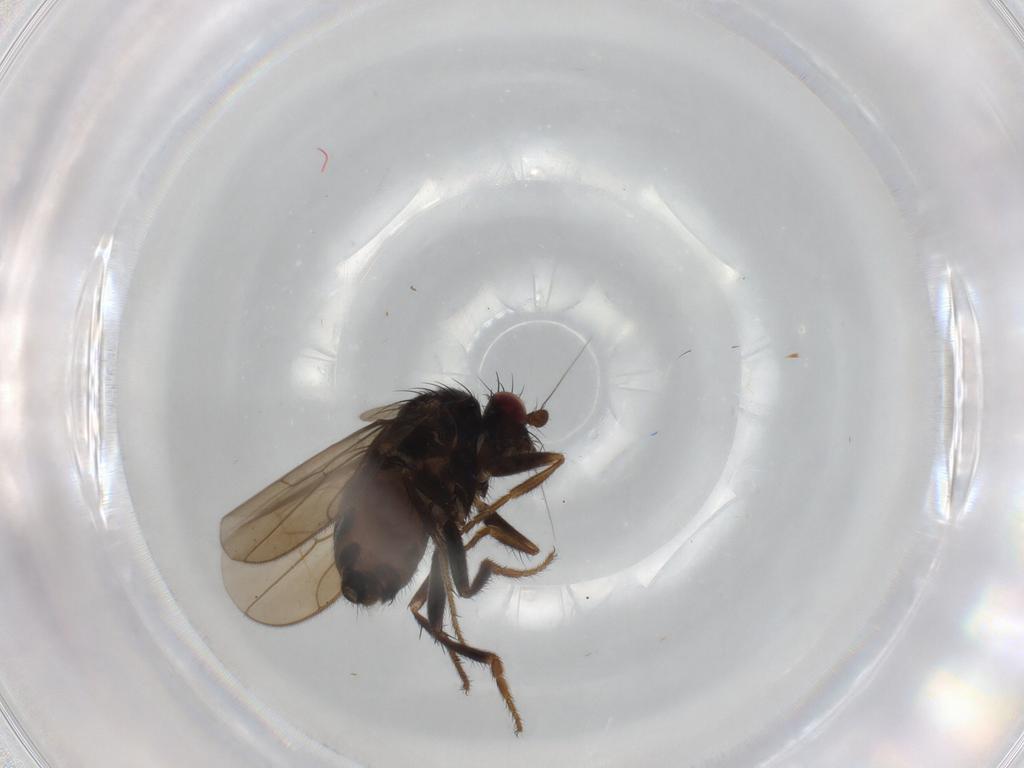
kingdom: Animalia
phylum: Arthropoda
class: Insecta
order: Diptera
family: Sphaeroceridae
